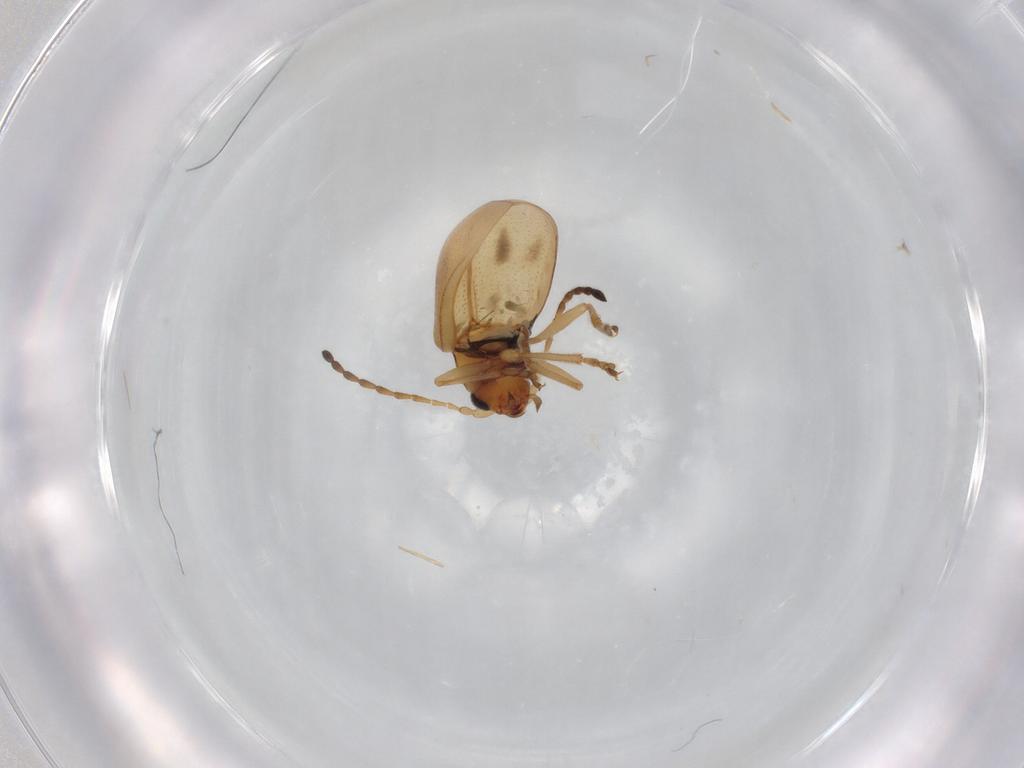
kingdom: Animalia
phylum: Arthropoda
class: Insecta
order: Coleoptera
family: Chrysomelidae
